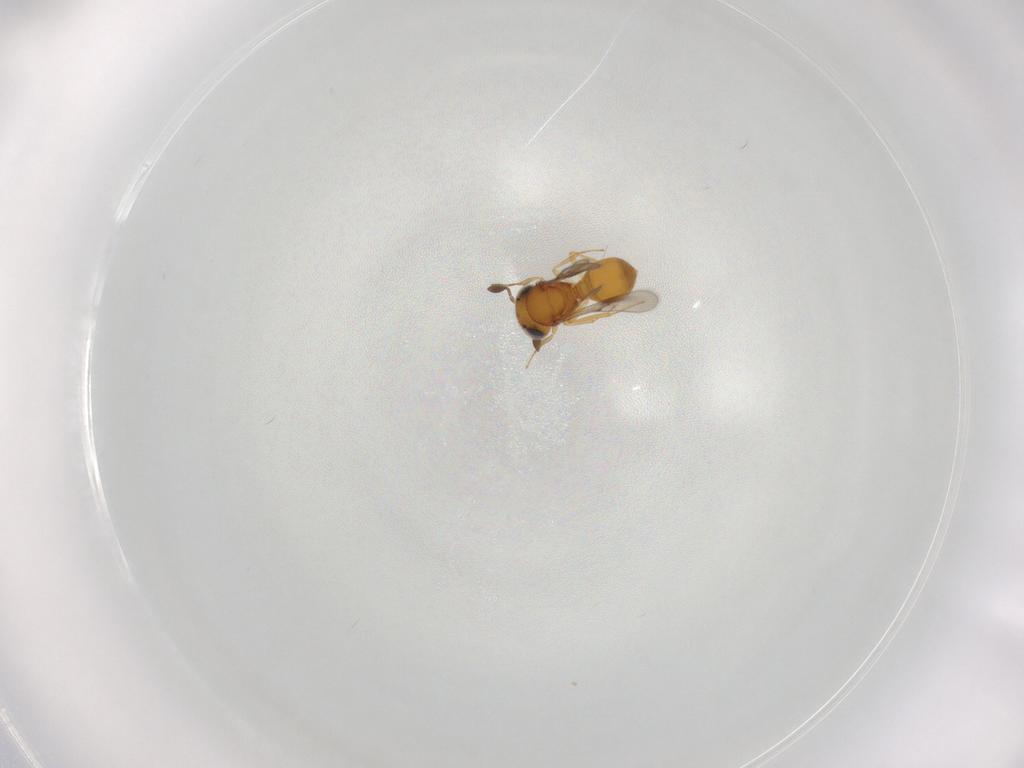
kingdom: Animalia
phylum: Arthropoda
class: Insecta
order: Hymenoptera
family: Scelionidae
